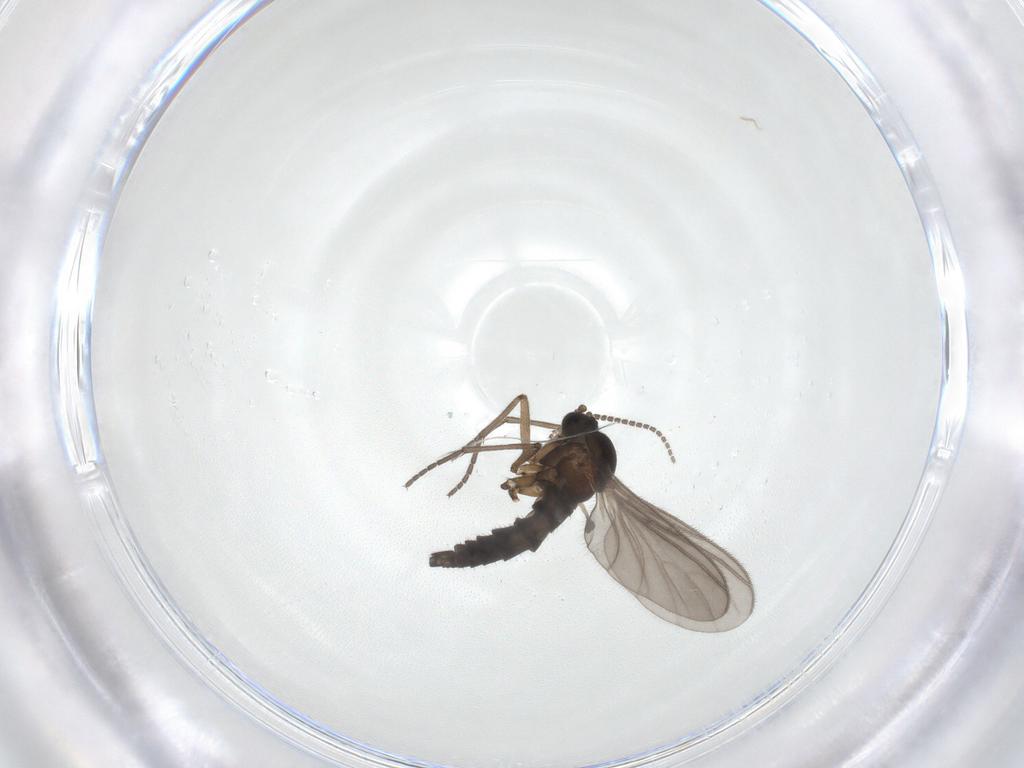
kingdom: Animalia
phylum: Arthropoda
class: Insecta
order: Diptera
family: Sciaridae
